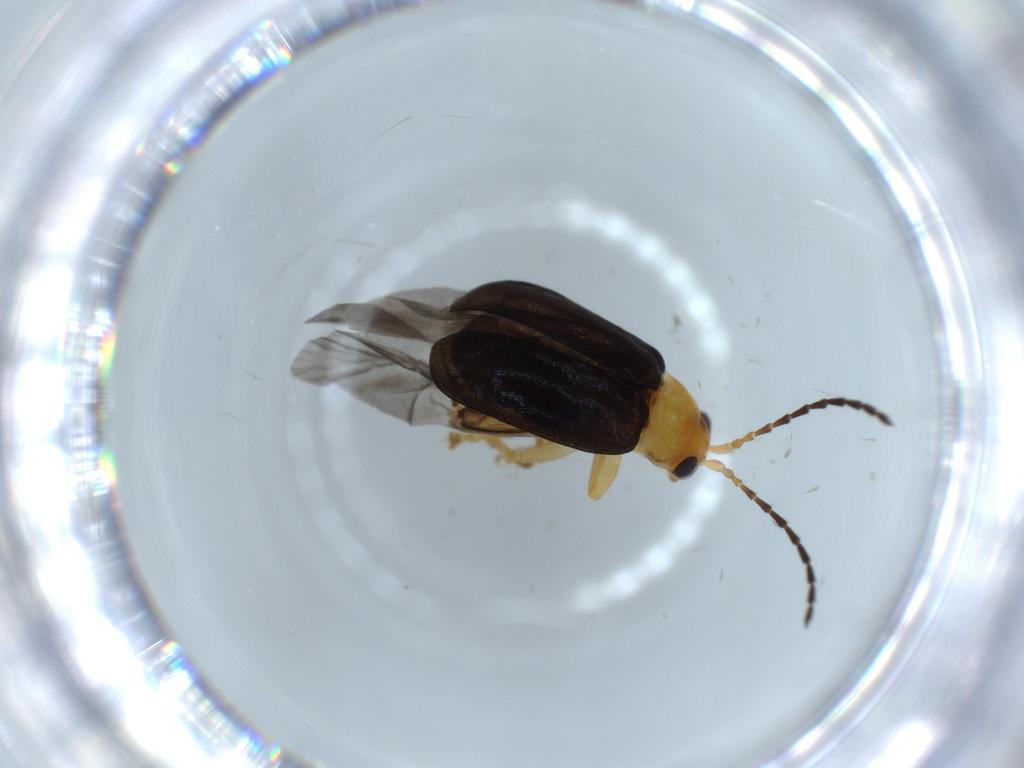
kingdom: Animalia
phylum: Arthropoda
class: Insecta
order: Coleoptera
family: Chrysomelidae
